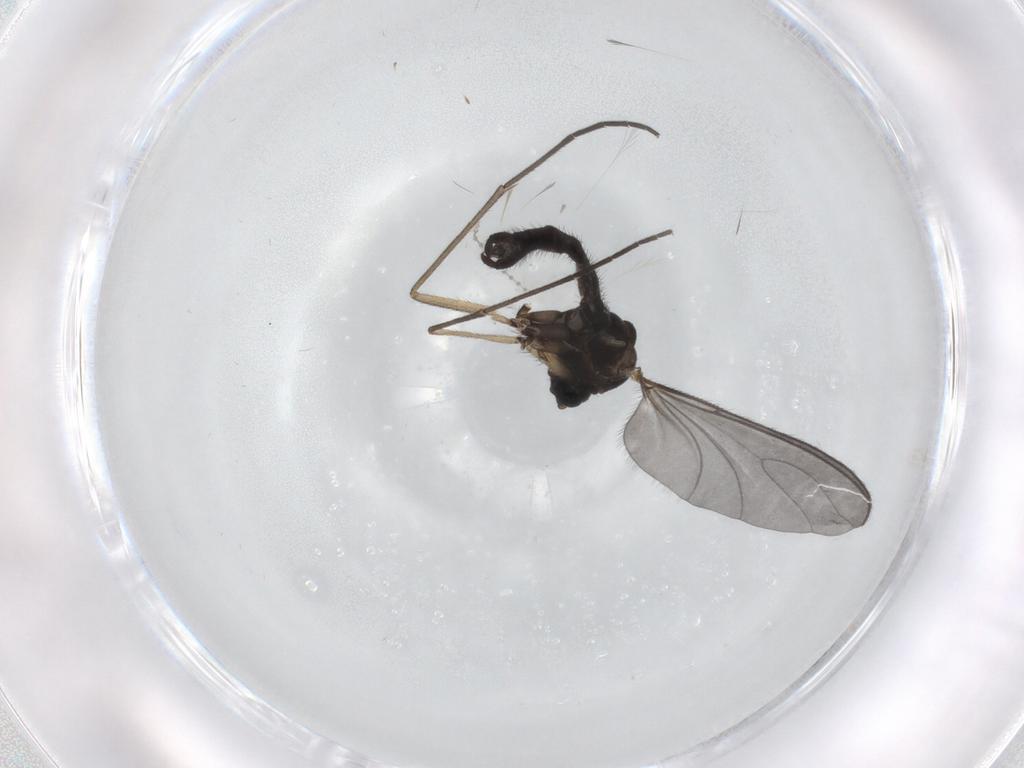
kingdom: Animalia
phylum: Arthropoda
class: Insecta
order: Diptera
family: Sciaridae
